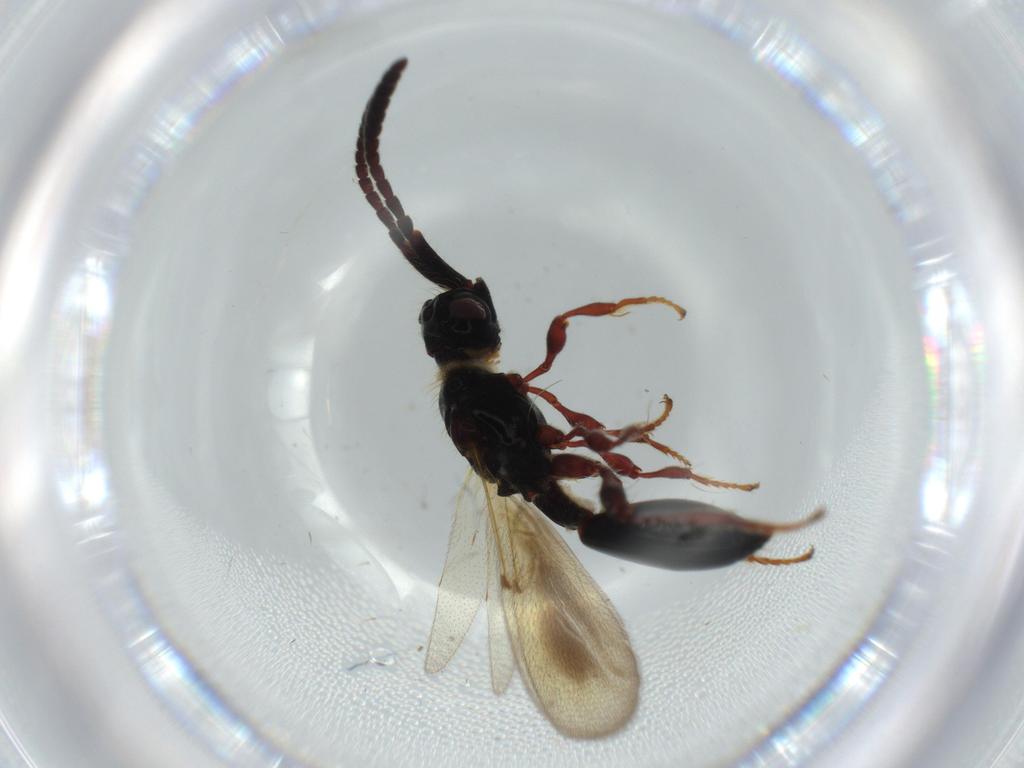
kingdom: Animalia
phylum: Arthropoda
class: Insecta
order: Hymenoptera
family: Diapriidae
